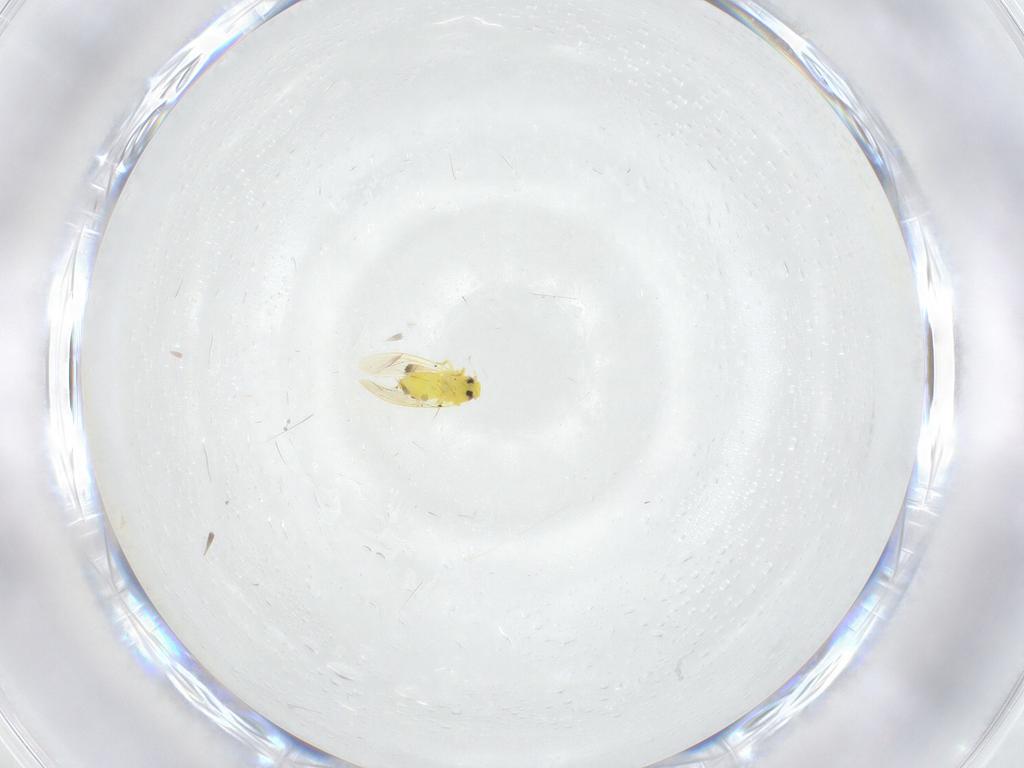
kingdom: Animalia
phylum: Arthropoda
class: Insecta
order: Hemiptera
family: Aleyrodidae
